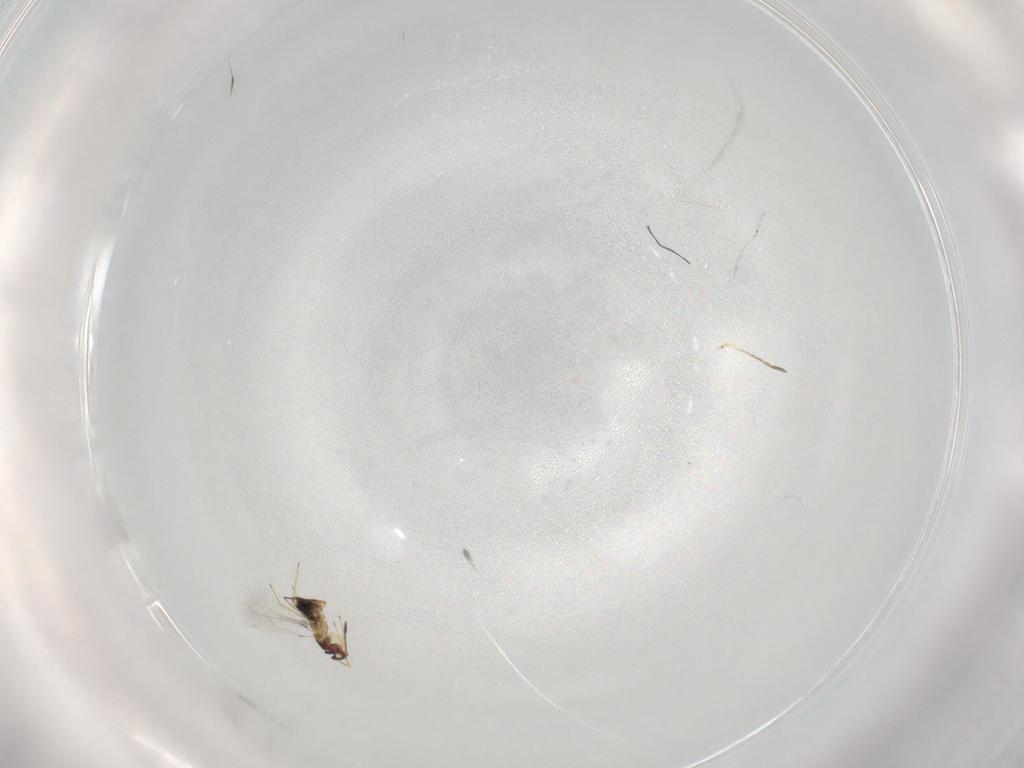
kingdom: Animalia
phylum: Arthropoda
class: Insecta
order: Hymenoptera
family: Mymaridae
